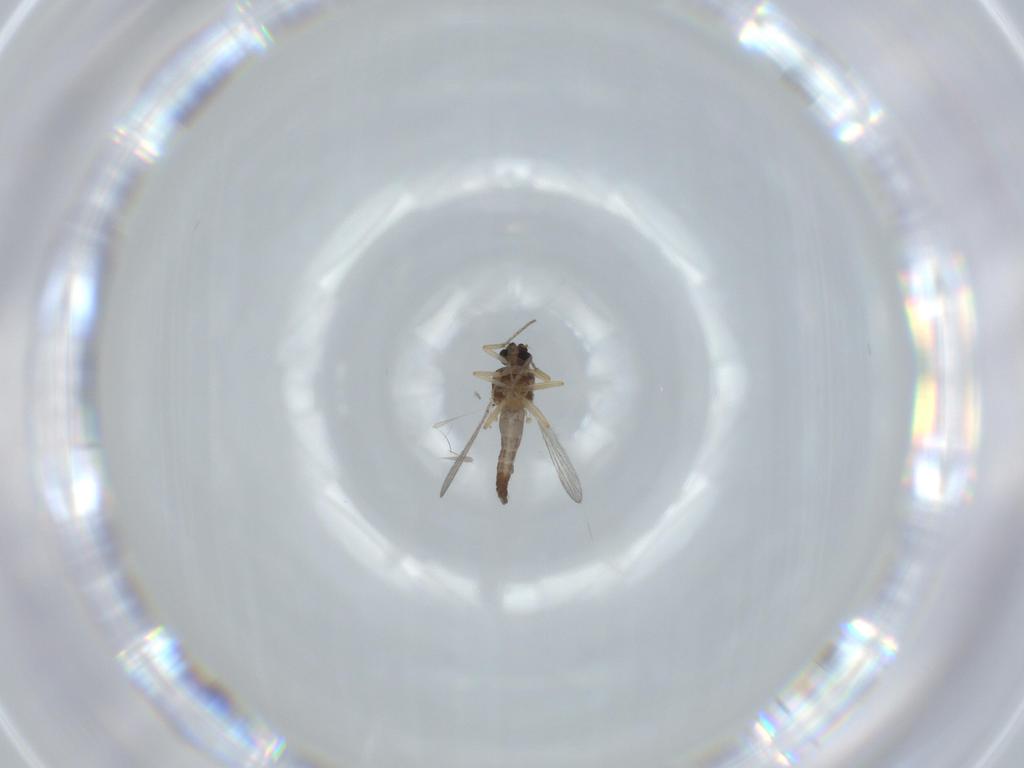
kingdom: Animalia
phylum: Arthropoda
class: Insecta
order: Diptera
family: Ceratopogonidae
